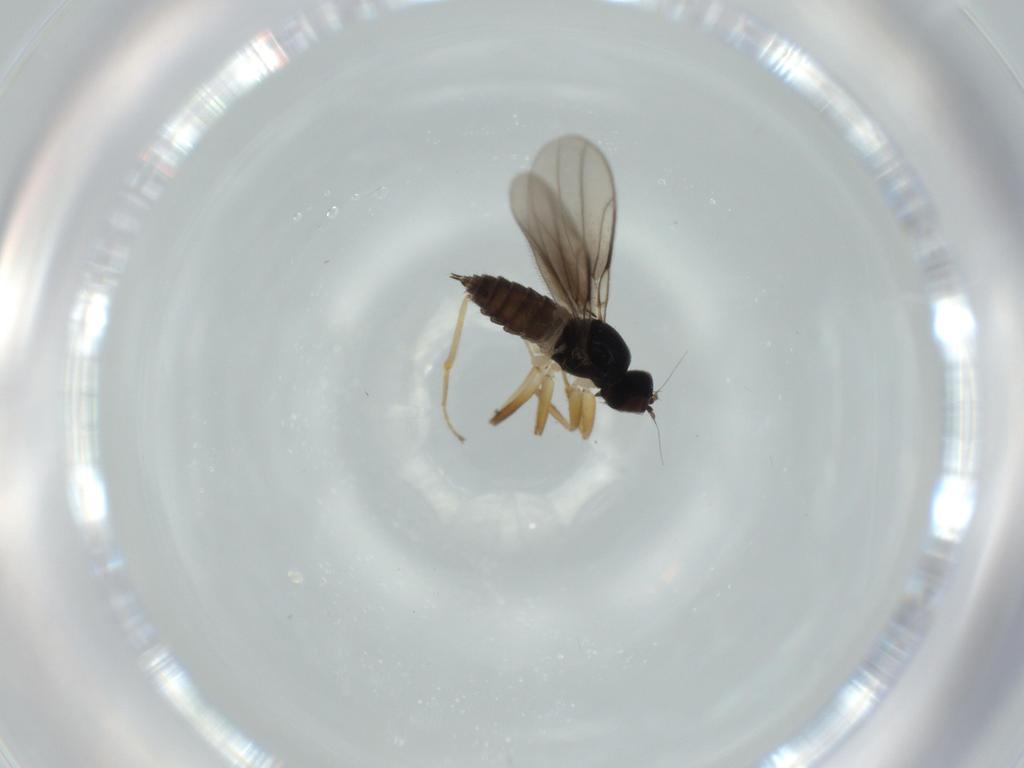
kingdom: Animalia
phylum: Arthropoda
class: Insecta
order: Diptera
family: Hybotidae
